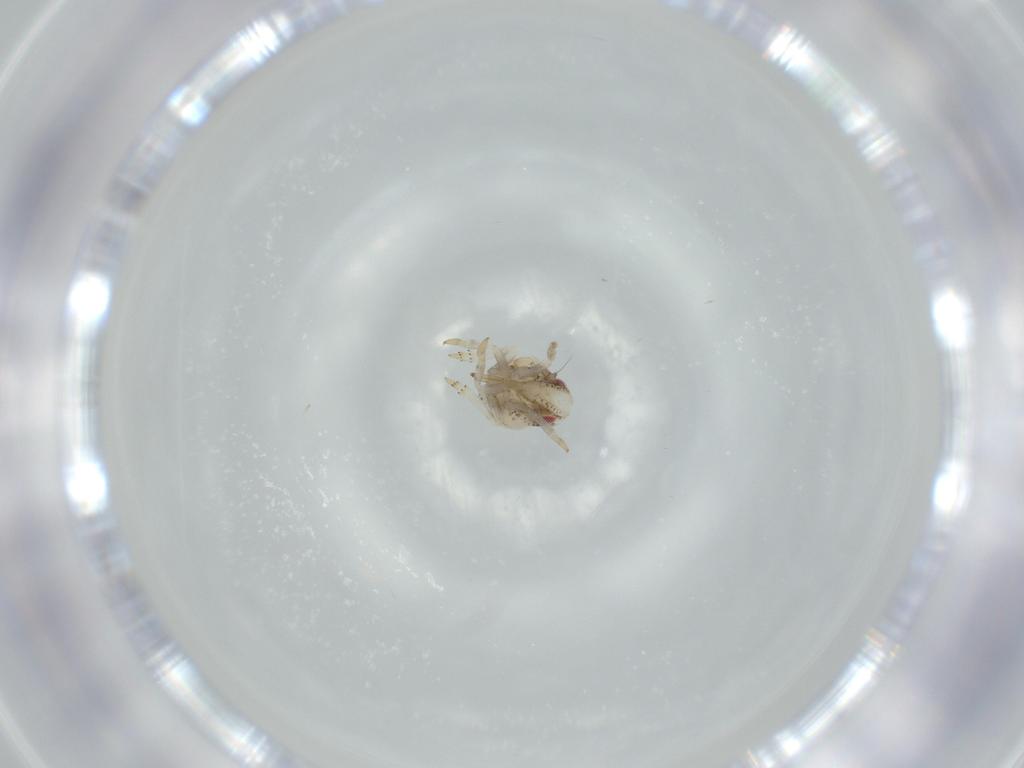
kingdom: Animalia
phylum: Arthropoda
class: Insecta
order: Hemiptera
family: Acanaloniidae
